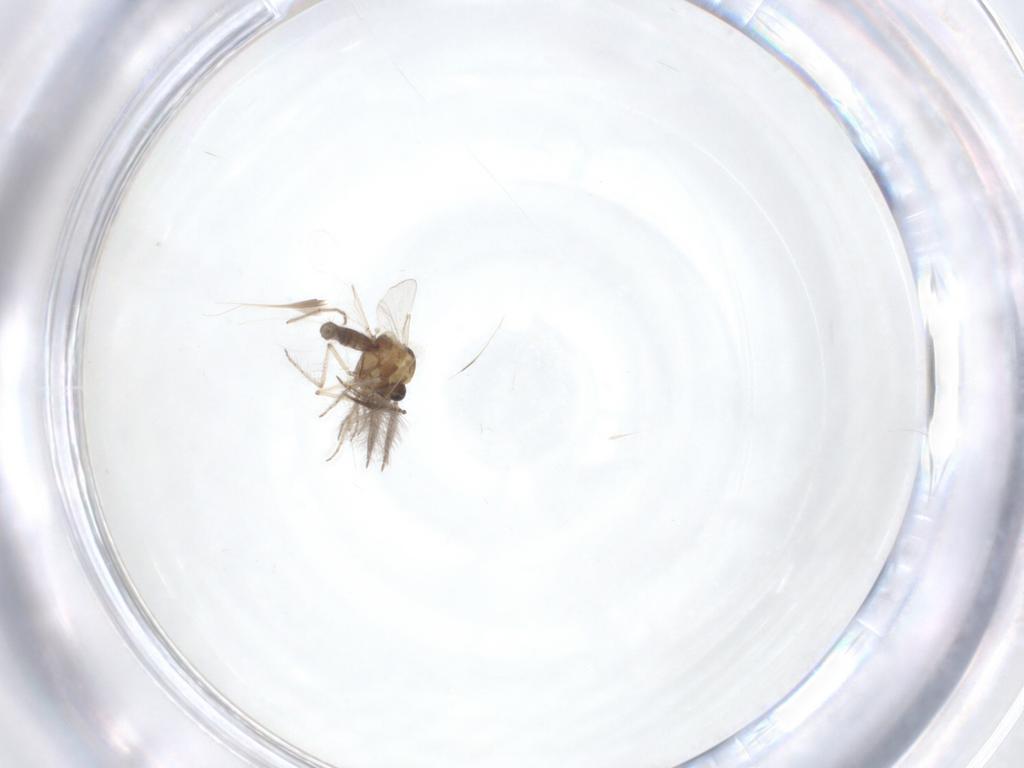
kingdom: Animalia
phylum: Arthropoda
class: Insecta
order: Diptera
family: Ceratopogonidae
